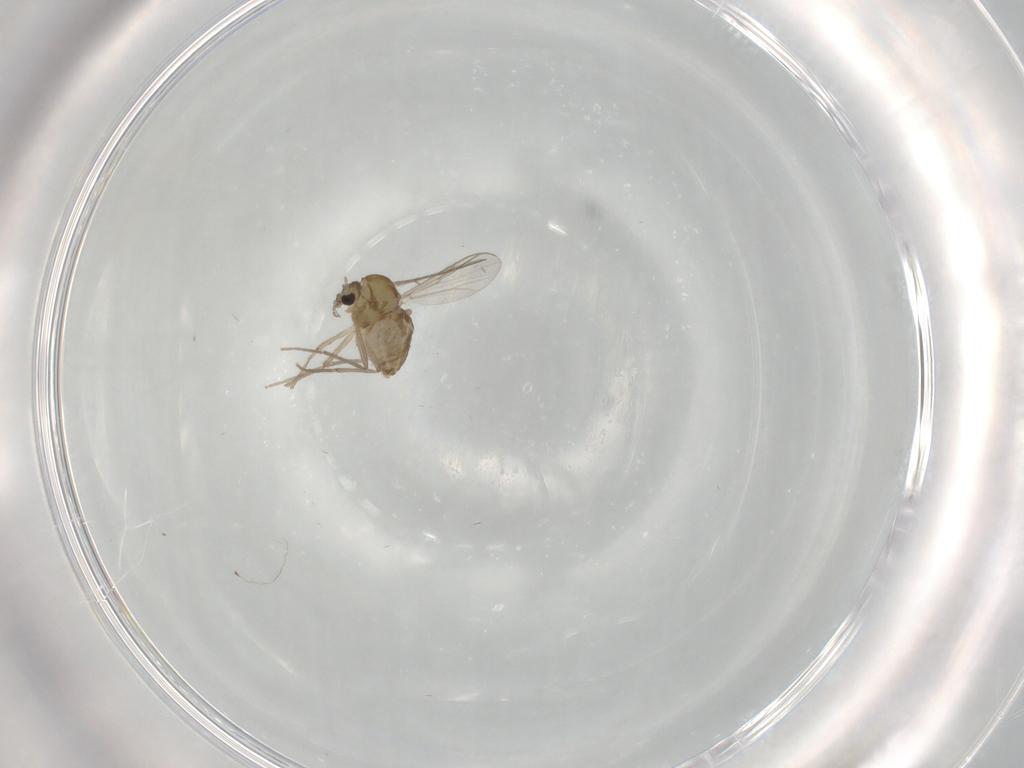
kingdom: Animalia
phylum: Arthropoda
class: Insecta
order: Diptera
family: Chironomidae
